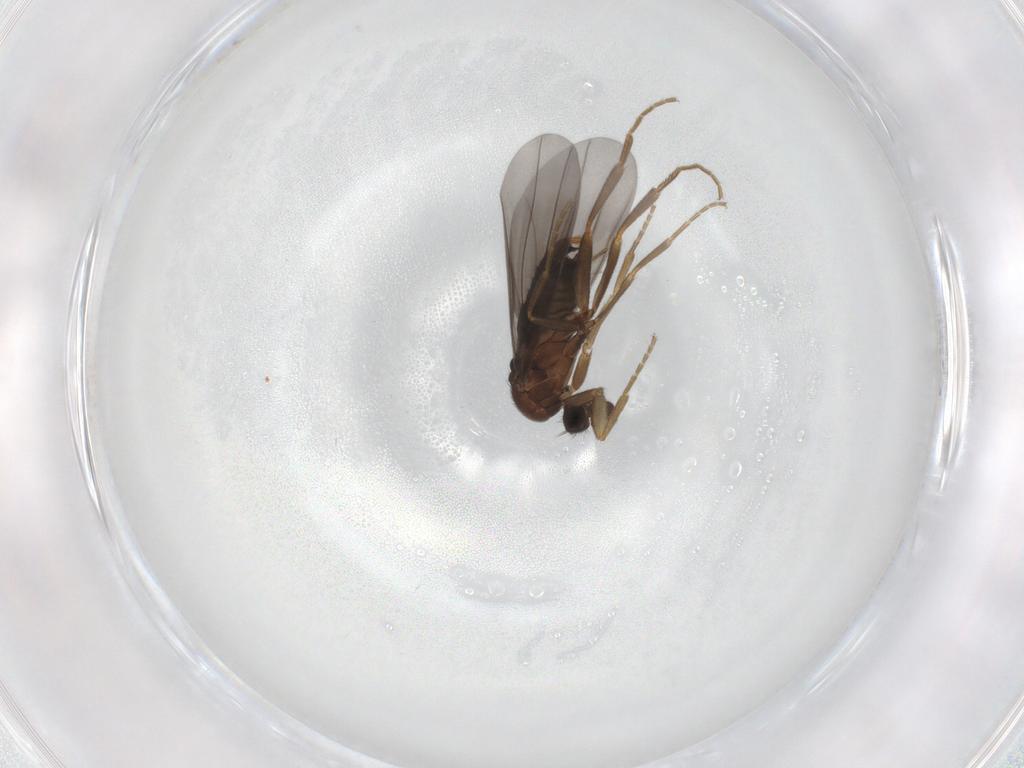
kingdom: Animalia
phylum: Arthropoda
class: Insecta
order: Diptera
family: Phoridae
